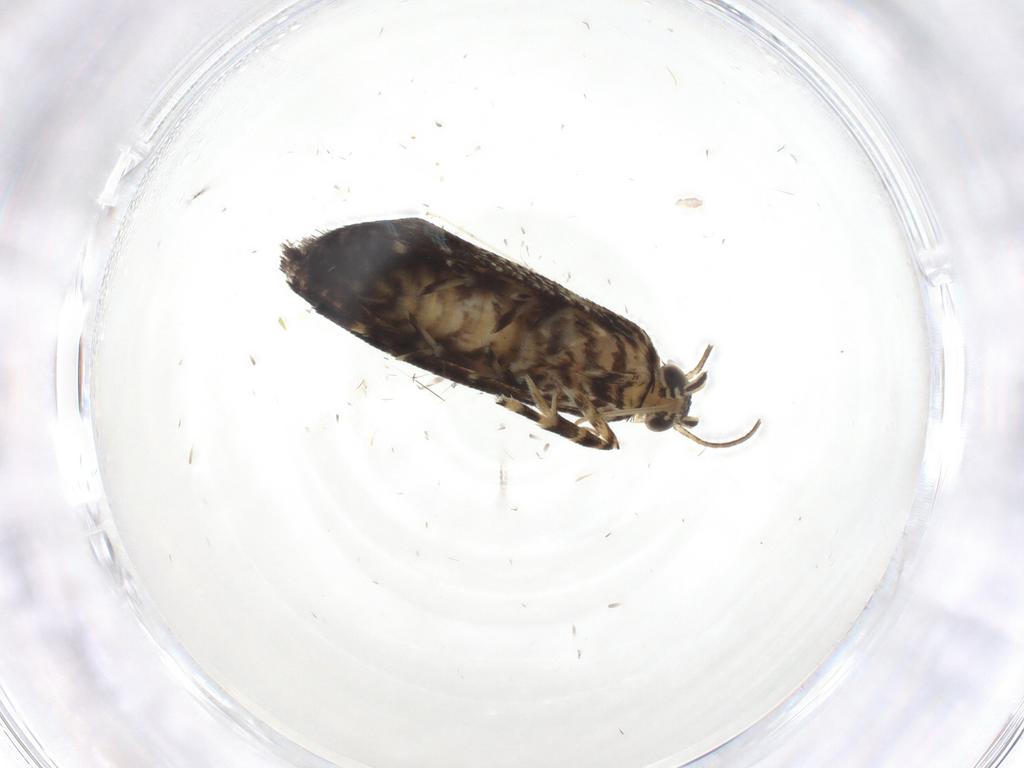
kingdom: Animalia
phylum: Arthropoda
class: Insecta
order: Lepidoptera
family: Geometridae
